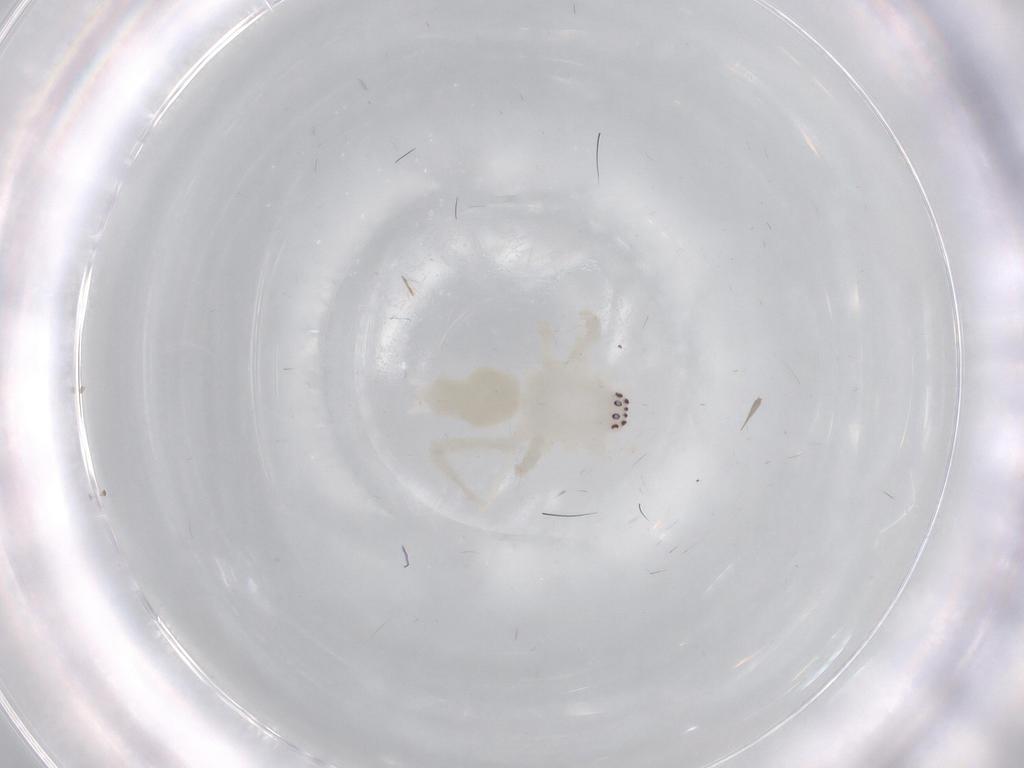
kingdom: Animalia
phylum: Arthropoda
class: Arachnida
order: Araneae
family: Anyphaenidae
